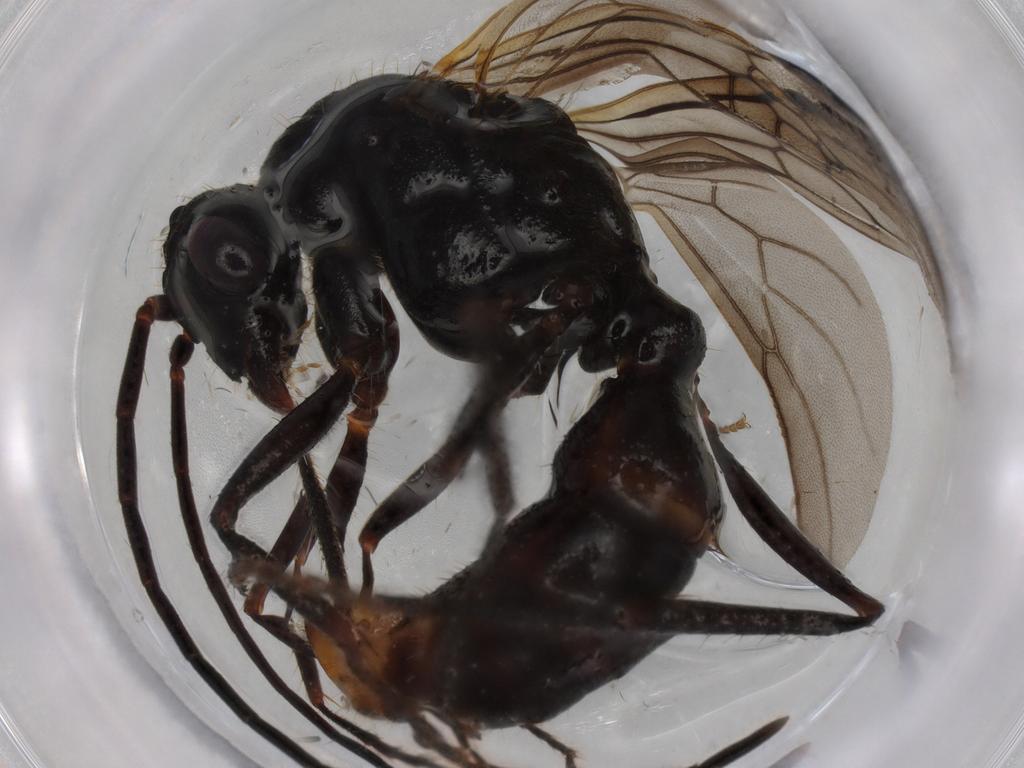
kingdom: Animalia
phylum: Arthropoda
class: Insecta
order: Hymenoptera
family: Formicidae
